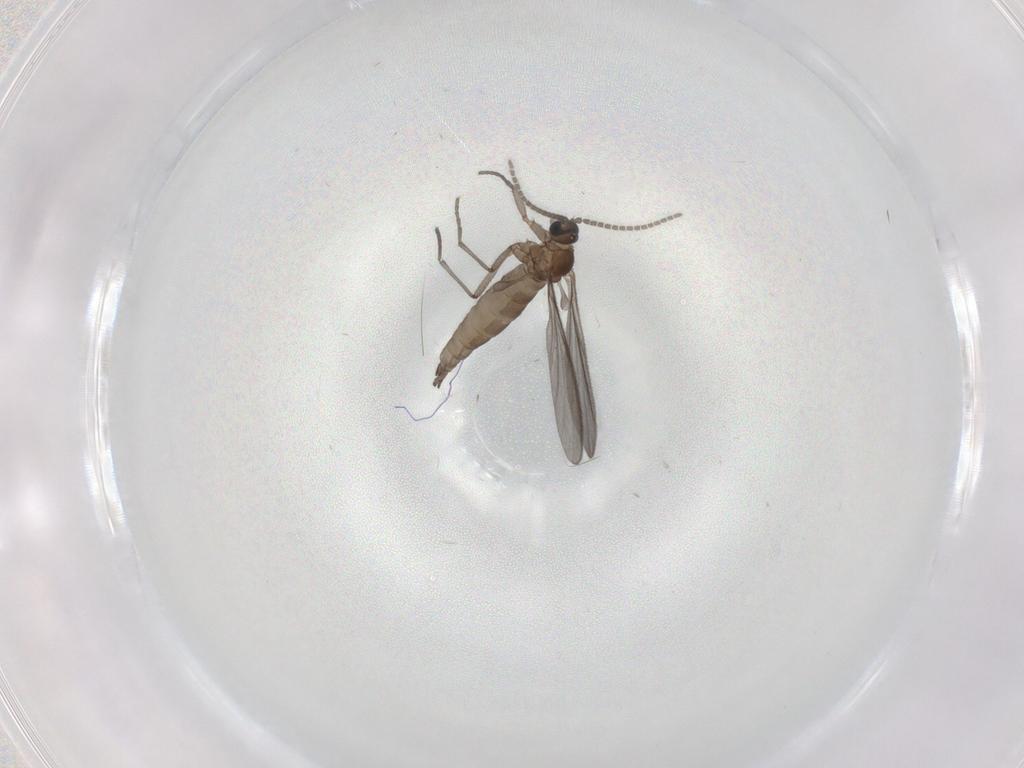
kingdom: Animalia
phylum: Arthropoda
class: Insecta
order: Diptera
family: Sciaridae
